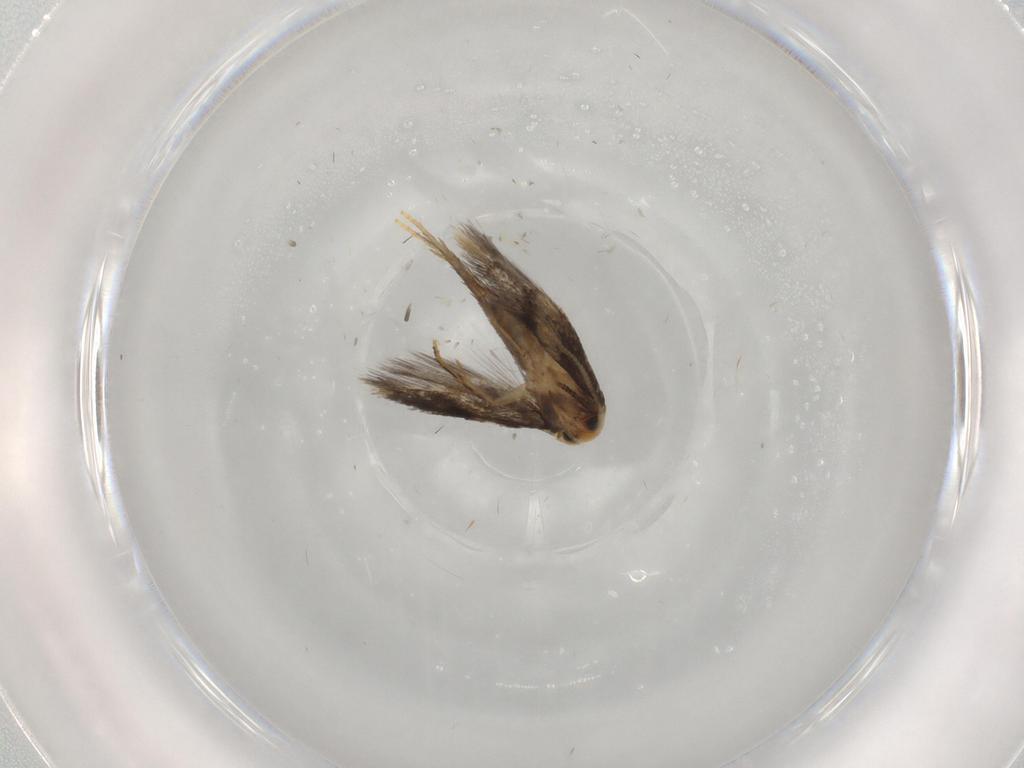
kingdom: Animalia
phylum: Arthropoda
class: Insecta
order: Lepidoptera
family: Nepticulidae
